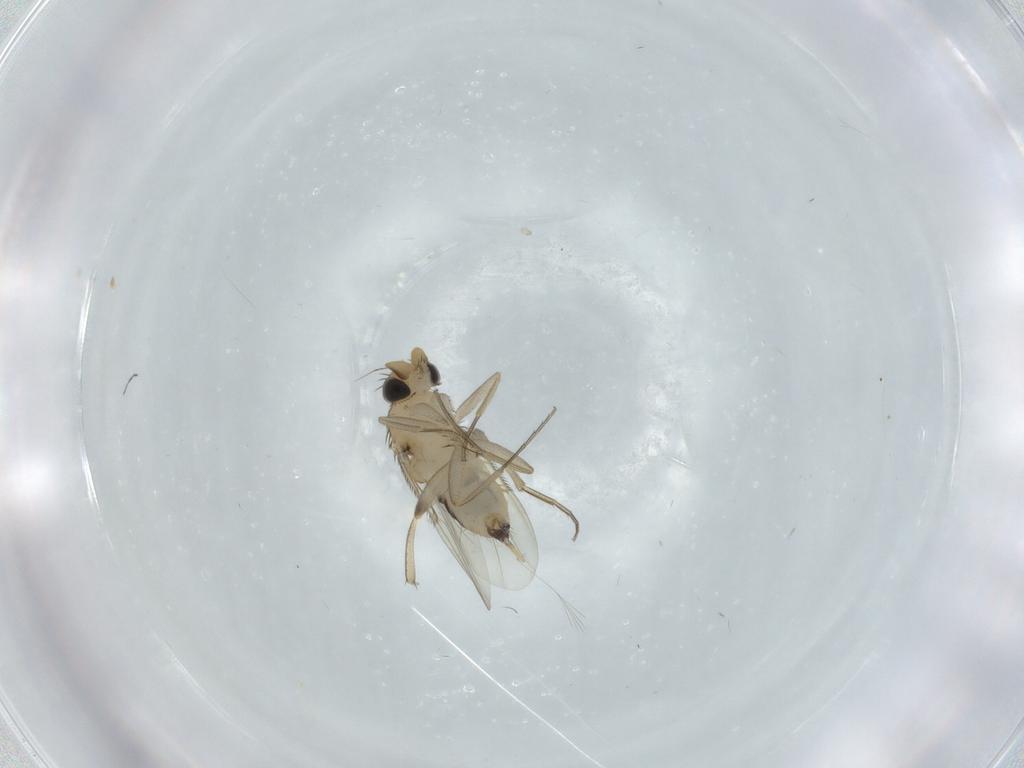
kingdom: Animalia
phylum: Arthropoda
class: Insecta
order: Diptera
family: Phoridae
